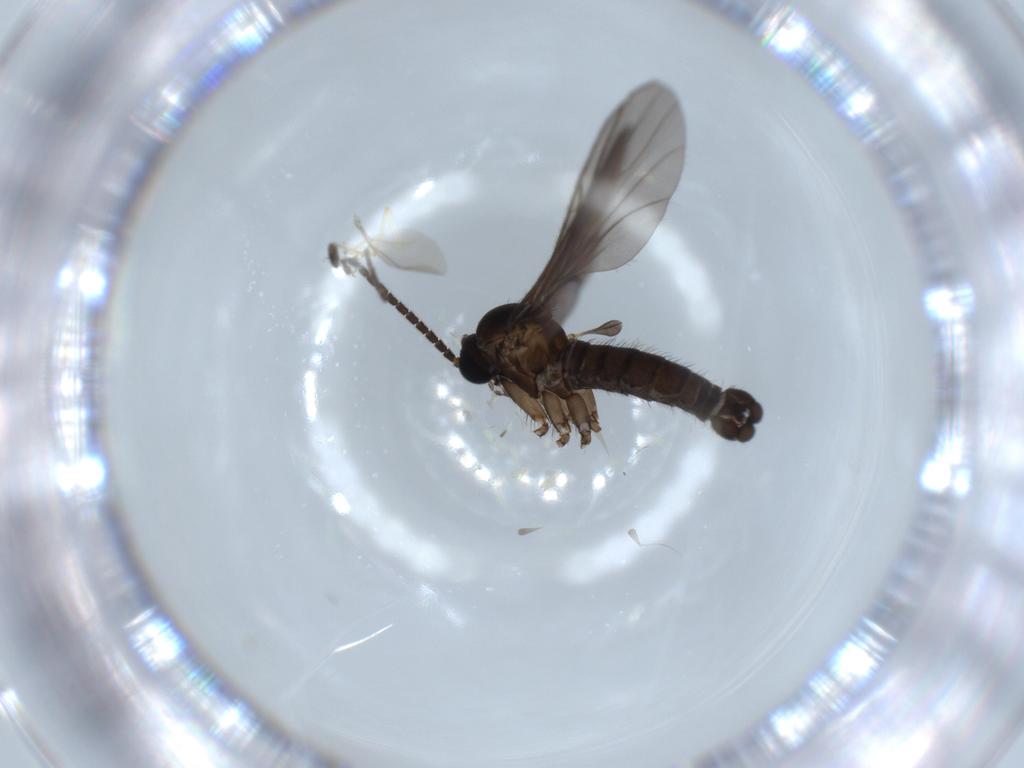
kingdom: Animalia
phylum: Arthropoda
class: Insecta
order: Diptera
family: Sciaridae
